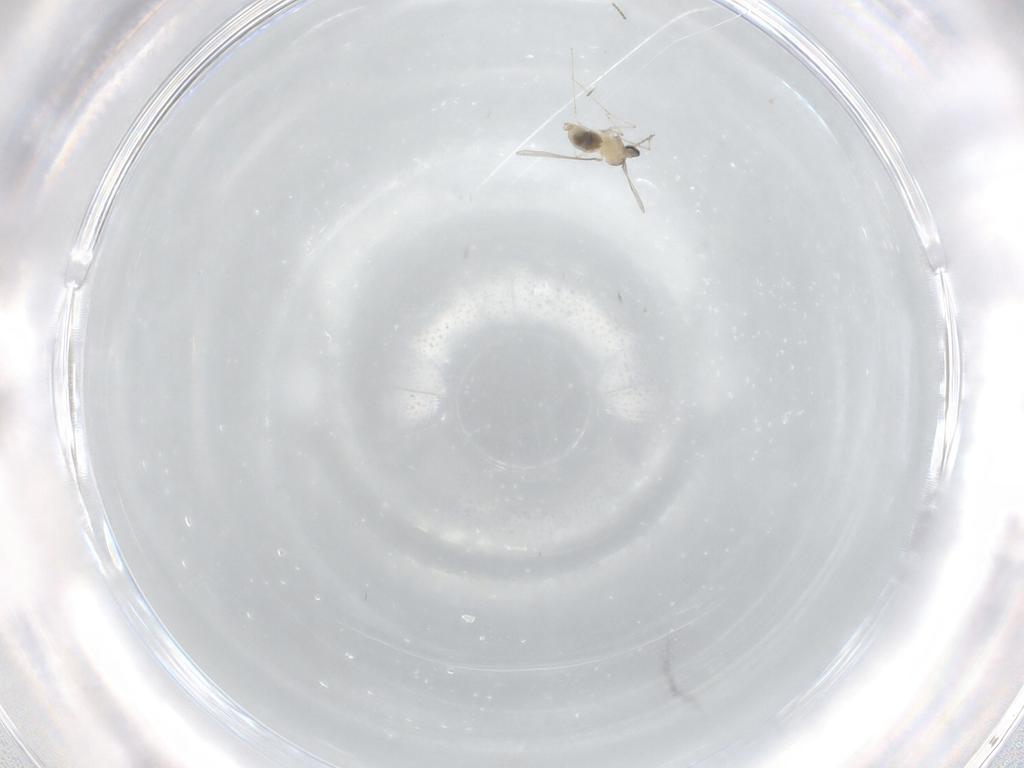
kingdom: Animalia
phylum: Arthropoda
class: Insecta
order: Diptera
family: Cecidomyiidae
